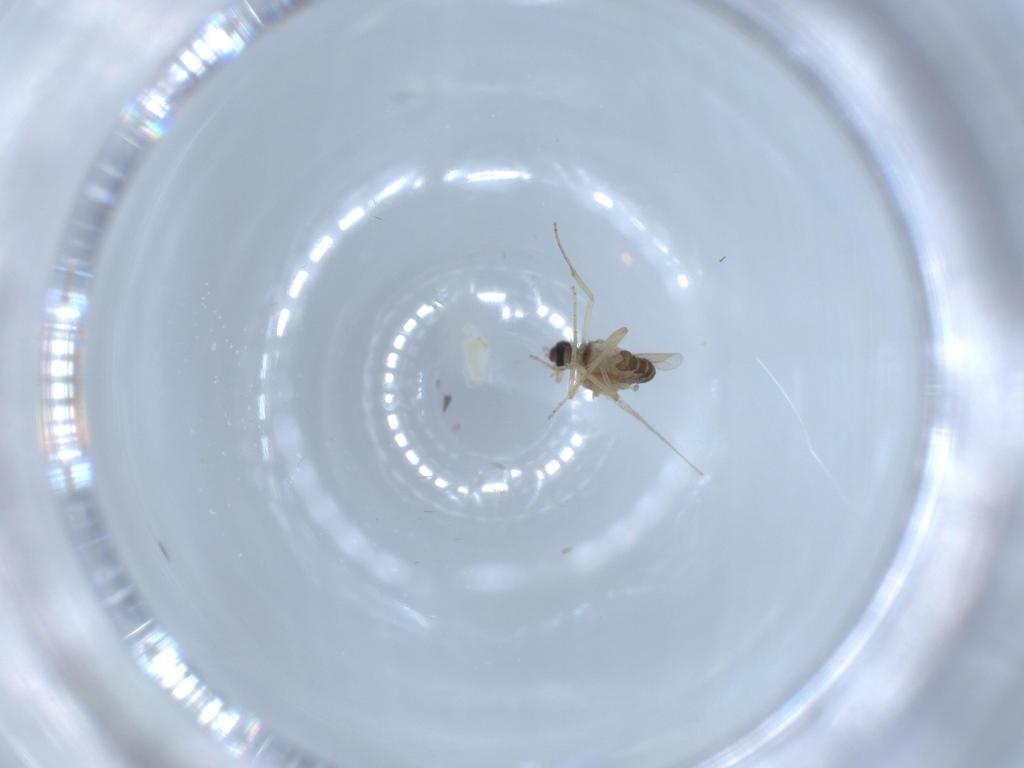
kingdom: Animalia
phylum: Arthropoda
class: Insecta
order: Diptera
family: Ceratopogonidae
